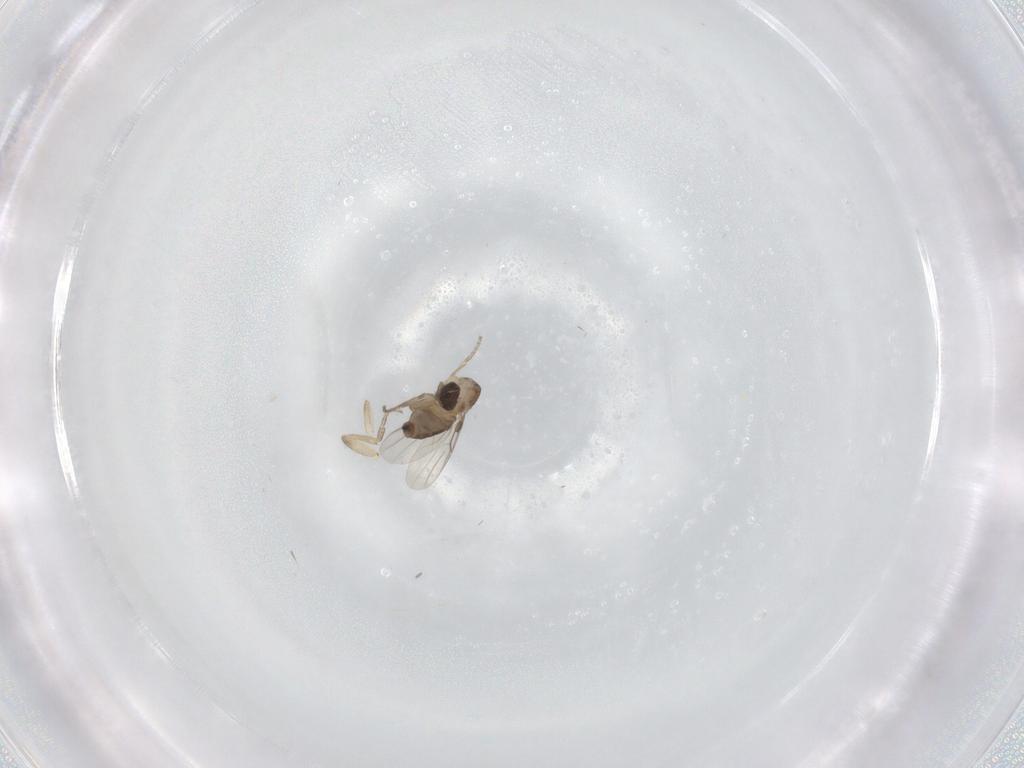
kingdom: Animalia
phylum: Arthropoda
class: Insecta
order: Diptera
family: Phoridae
